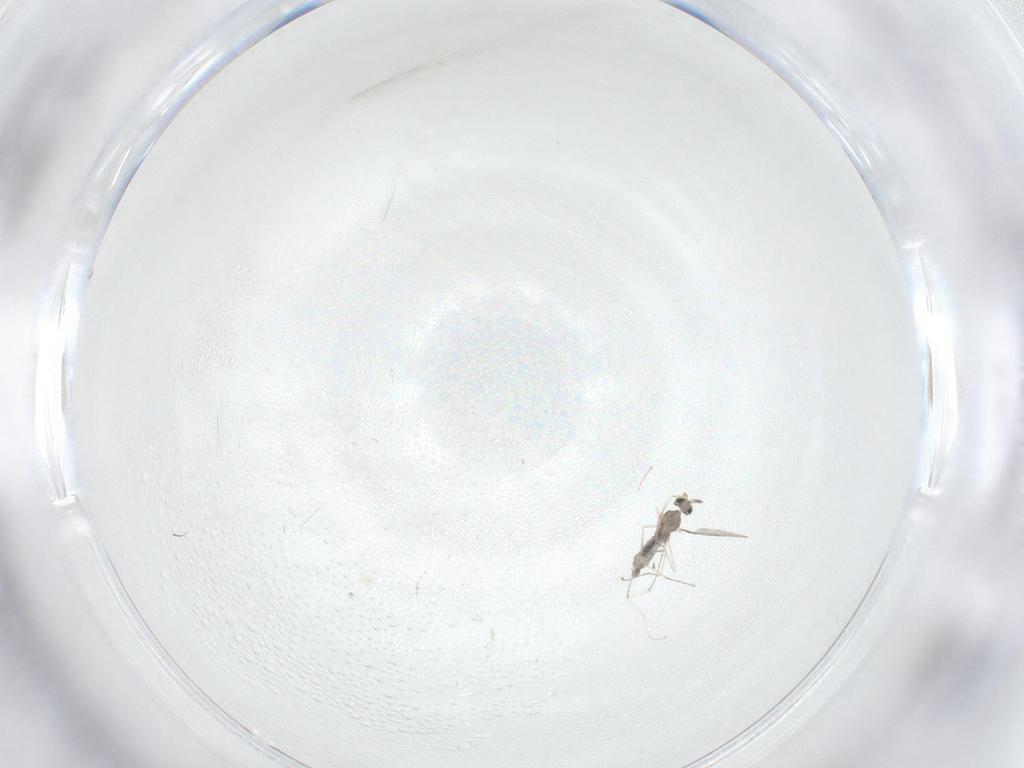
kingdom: Animalia
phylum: Arthropoda
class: Insecta
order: Diptera
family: Cecidomyiidae
